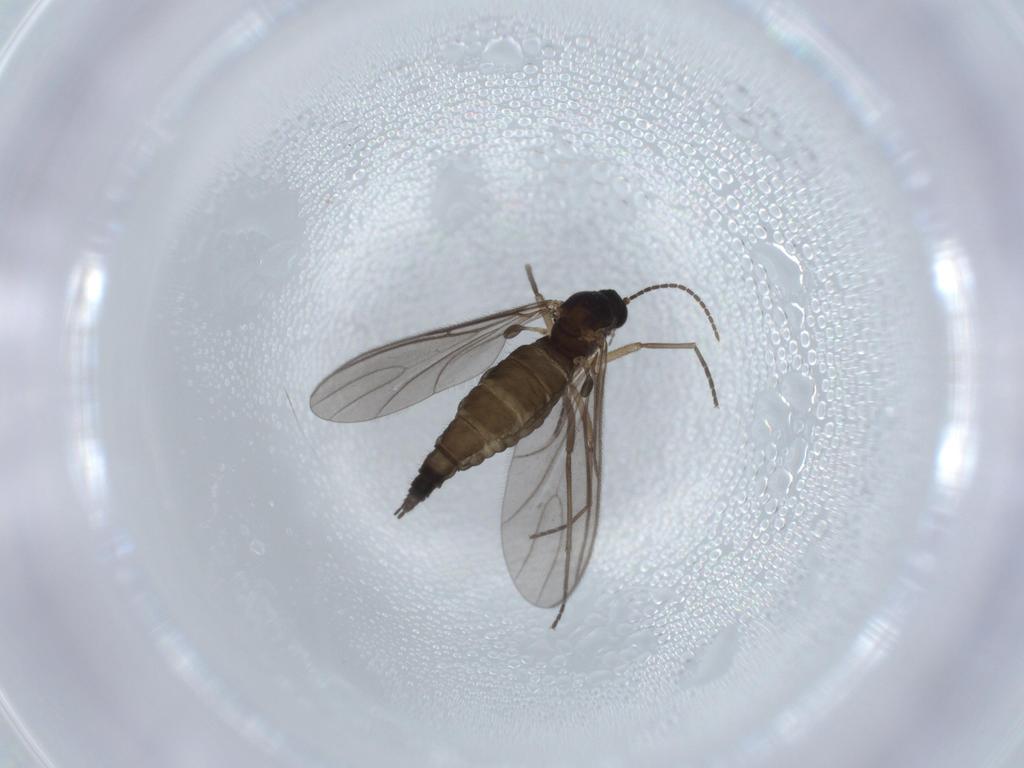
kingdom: Animalia
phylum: Arthropoda
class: Insecta
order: Diptera
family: Sciaridae
